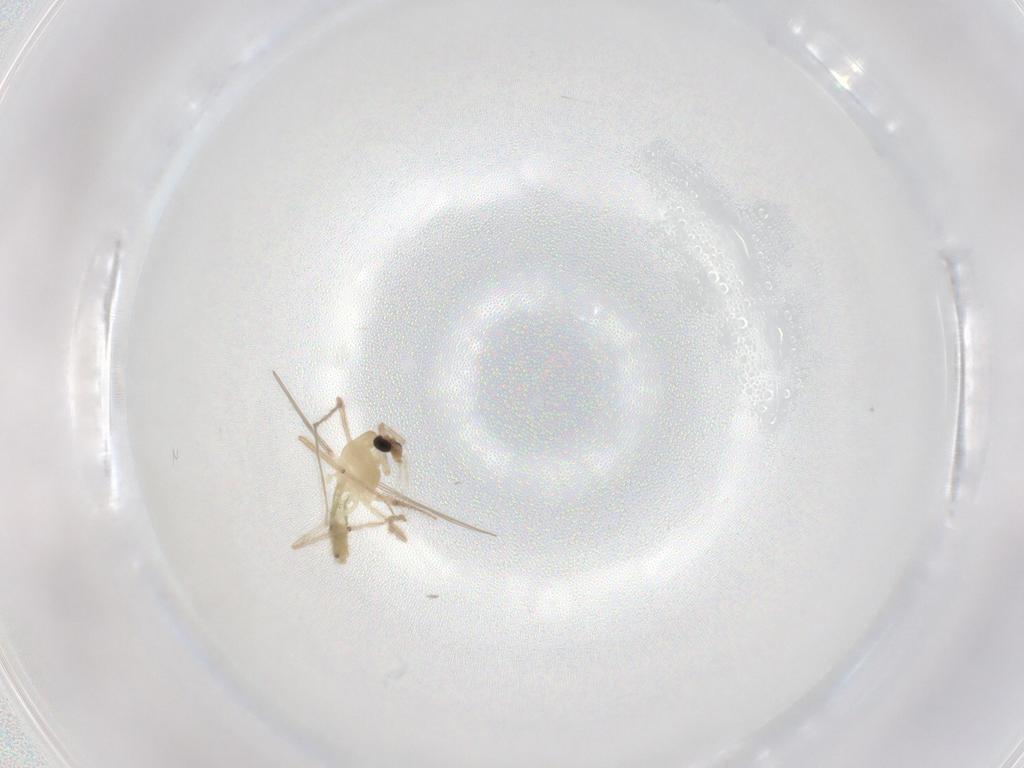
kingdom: Animalia
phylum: Arthropoda
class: Insecta
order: Diptera
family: Chironomidae
